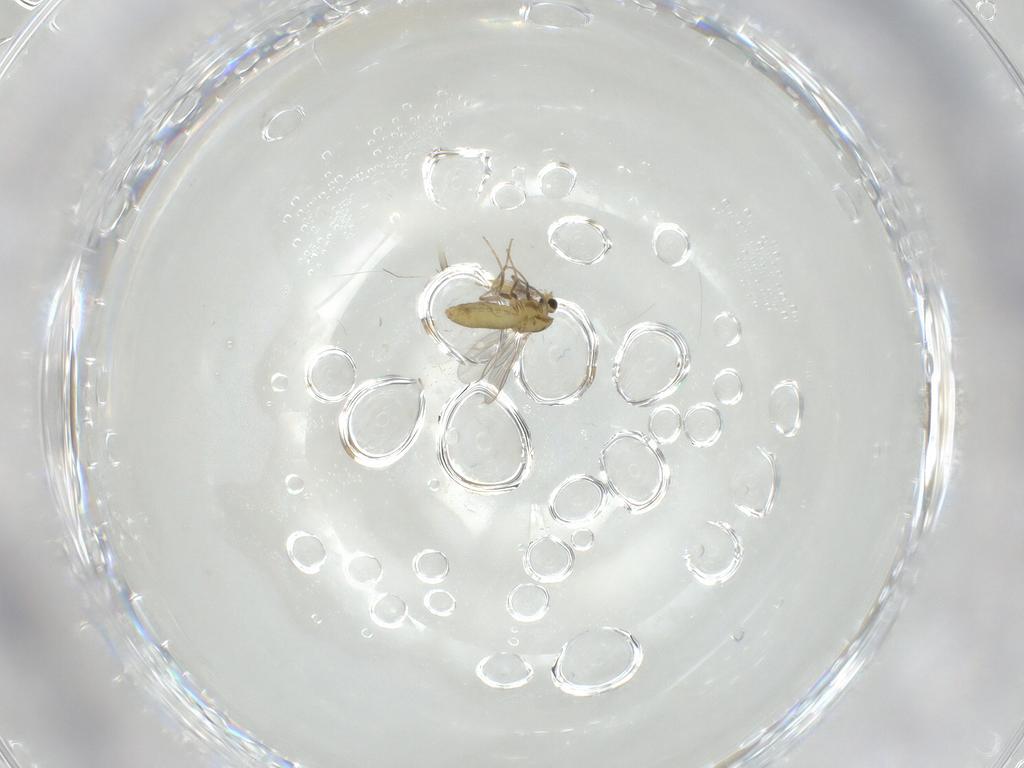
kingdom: Animalia
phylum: Arthropoda
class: Insecta
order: Diptera
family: Chironomidae
